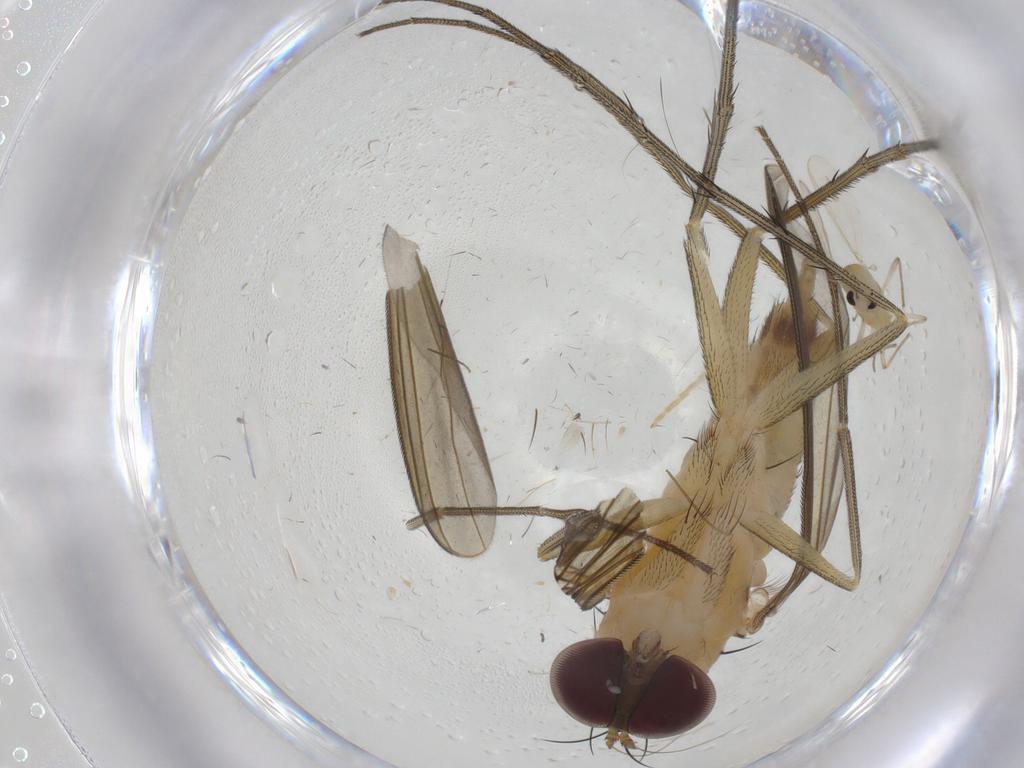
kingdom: Animalia
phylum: Arthropoda
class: Insecta
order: Diptera
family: Dolichopodidae
